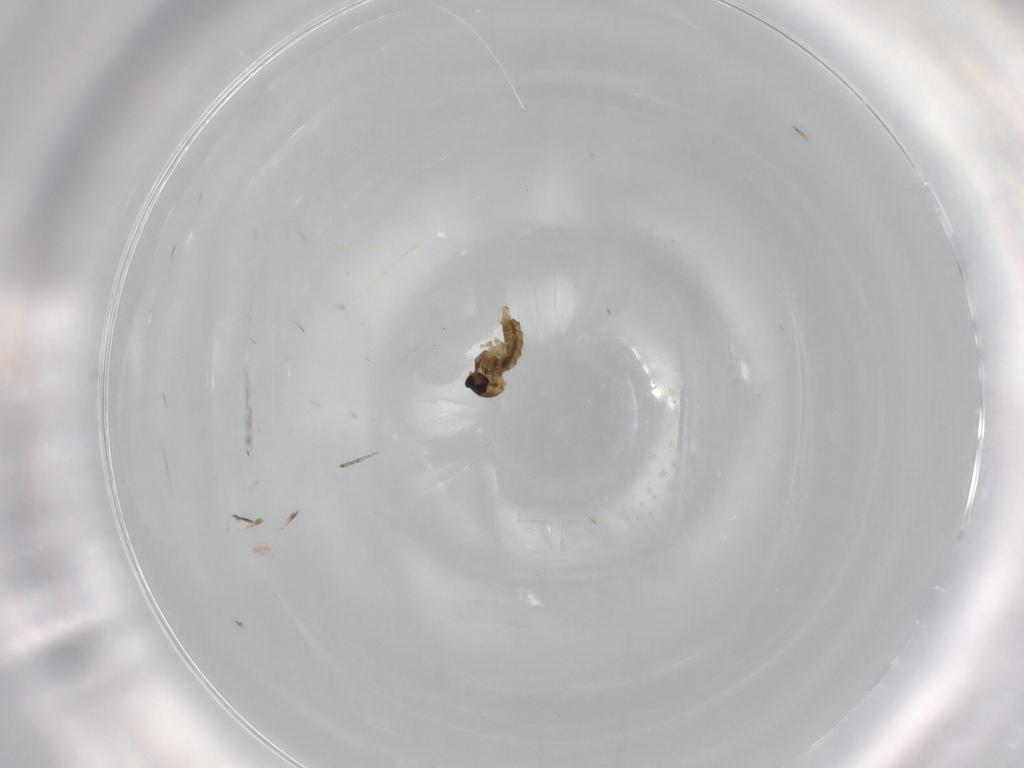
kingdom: Animalia
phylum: Arthropoda
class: Insecta
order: Diptera
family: Cecidomyiidae
